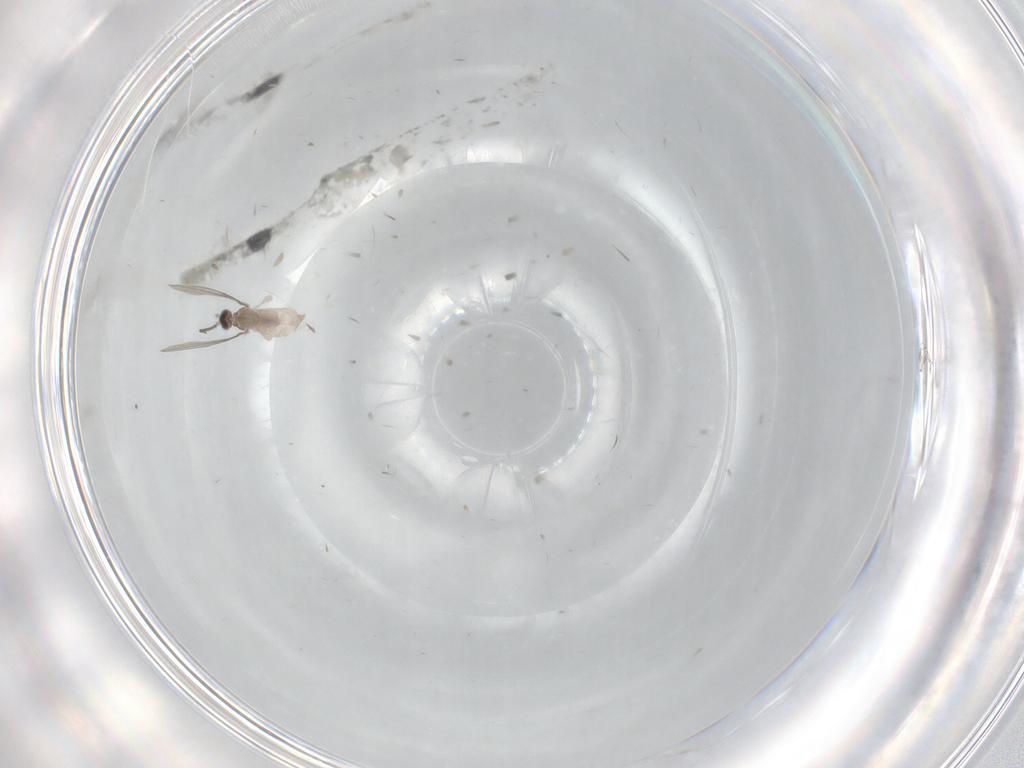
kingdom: Animalia
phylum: Arthropoda
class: Insecta
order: Diptera
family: Cecidomyiidae
